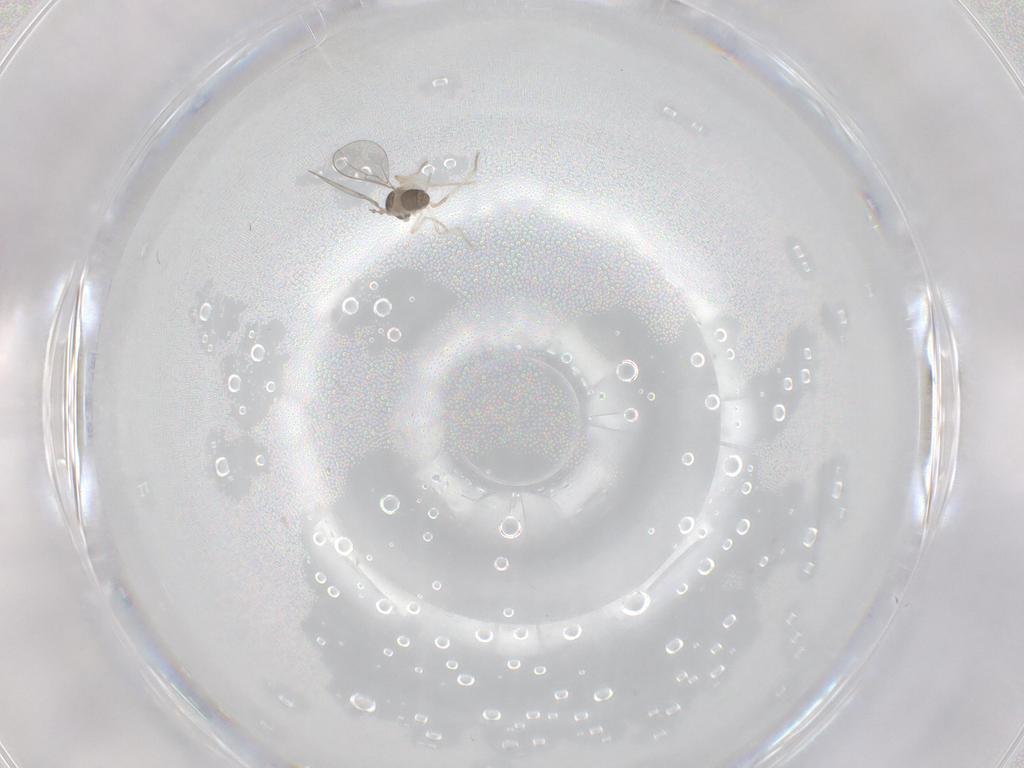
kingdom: Animalia
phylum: Arthropoda
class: Insecta
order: Diptera
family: Cecidomyiidae
